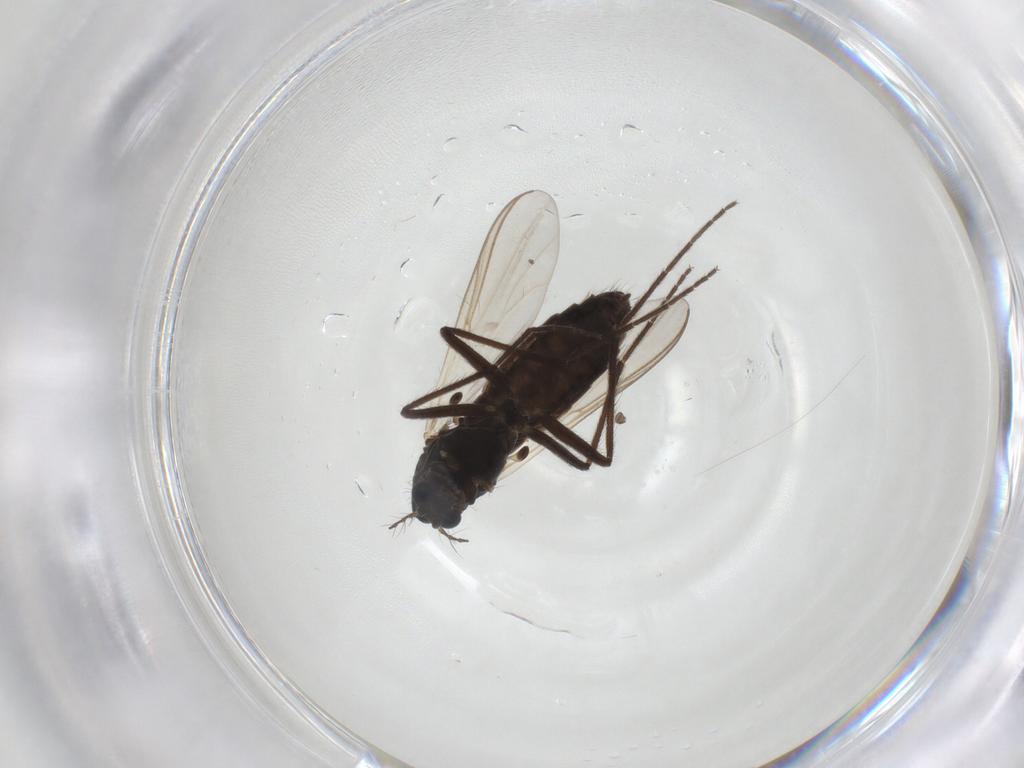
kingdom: Animalia
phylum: Arthropoda
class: Insecta
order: Diptera
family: Chironomidae
